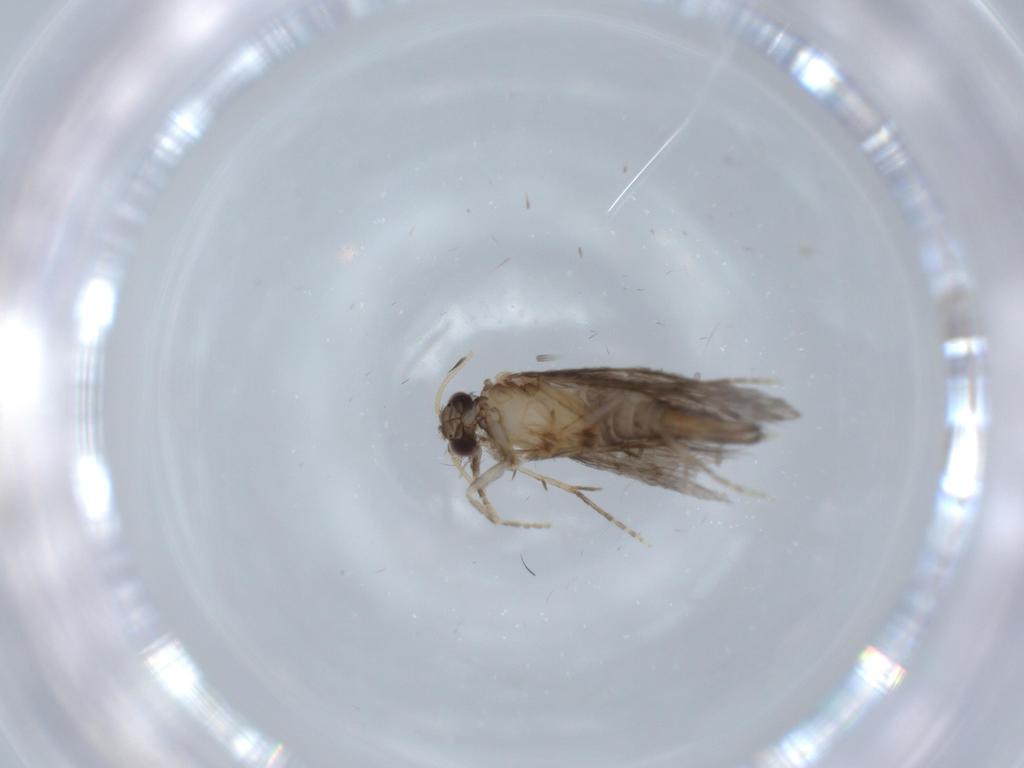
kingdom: Animalia
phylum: Arthropoda
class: Insecta
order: Trichoptera
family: Hydroptilidae
